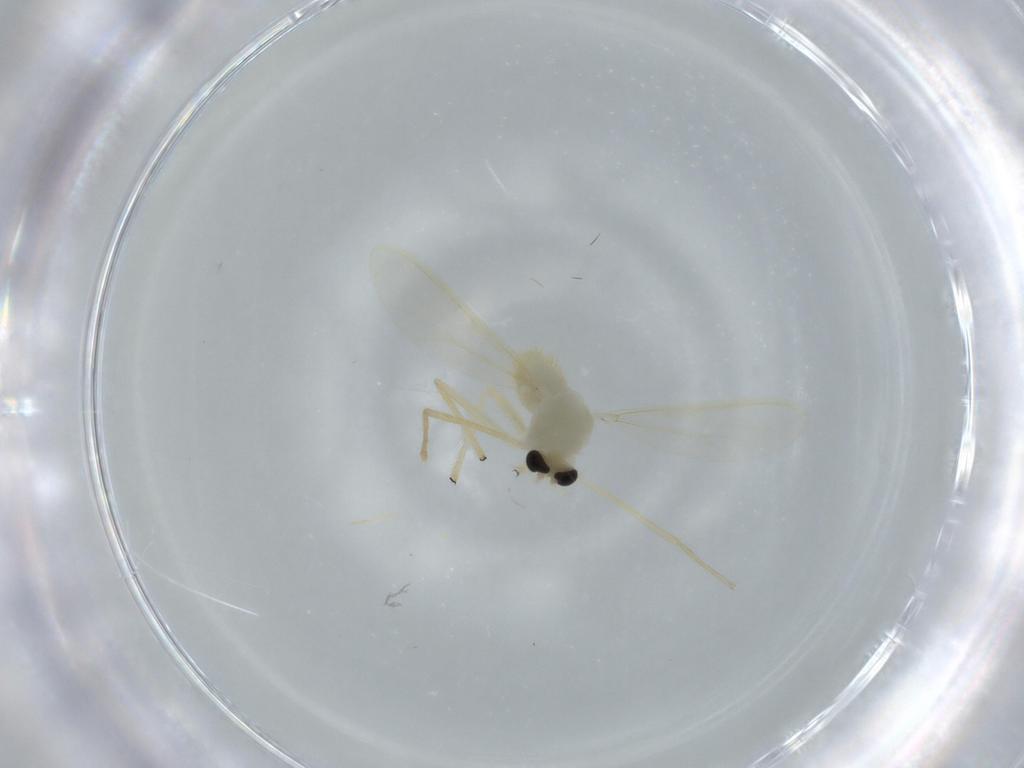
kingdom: Animalia
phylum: Arthropoda
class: Insecta
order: Diptera
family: Chironomidae
